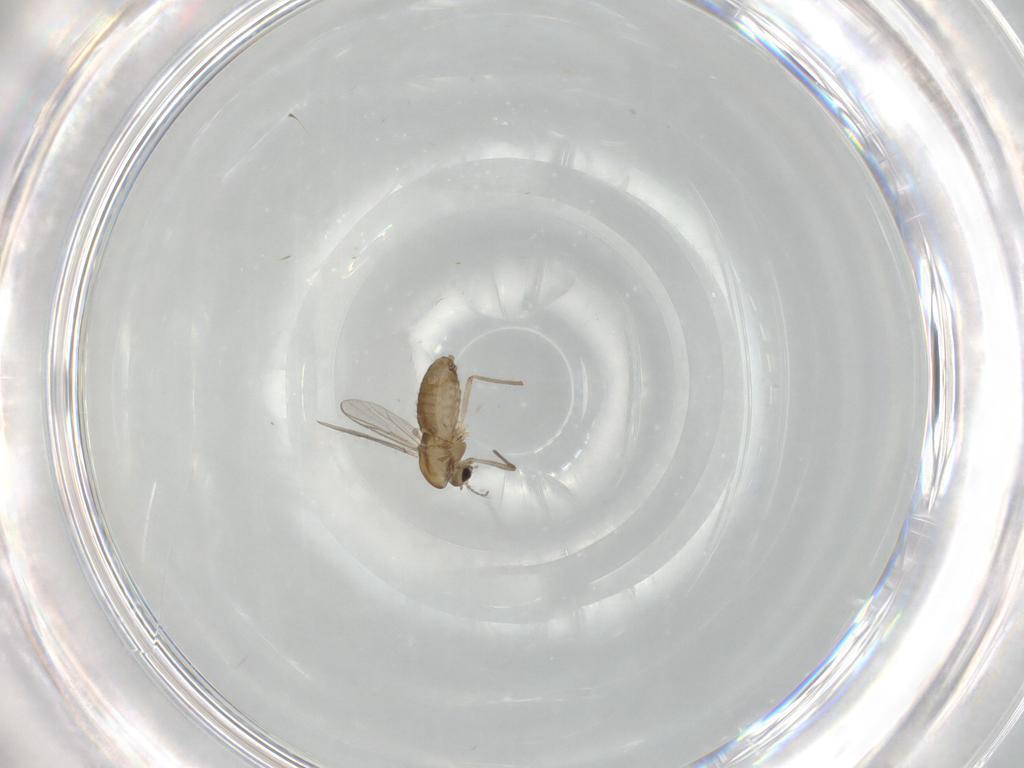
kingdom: Animalia
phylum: Arthropoda
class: Insecta
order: Diptera
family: Chironomidae
